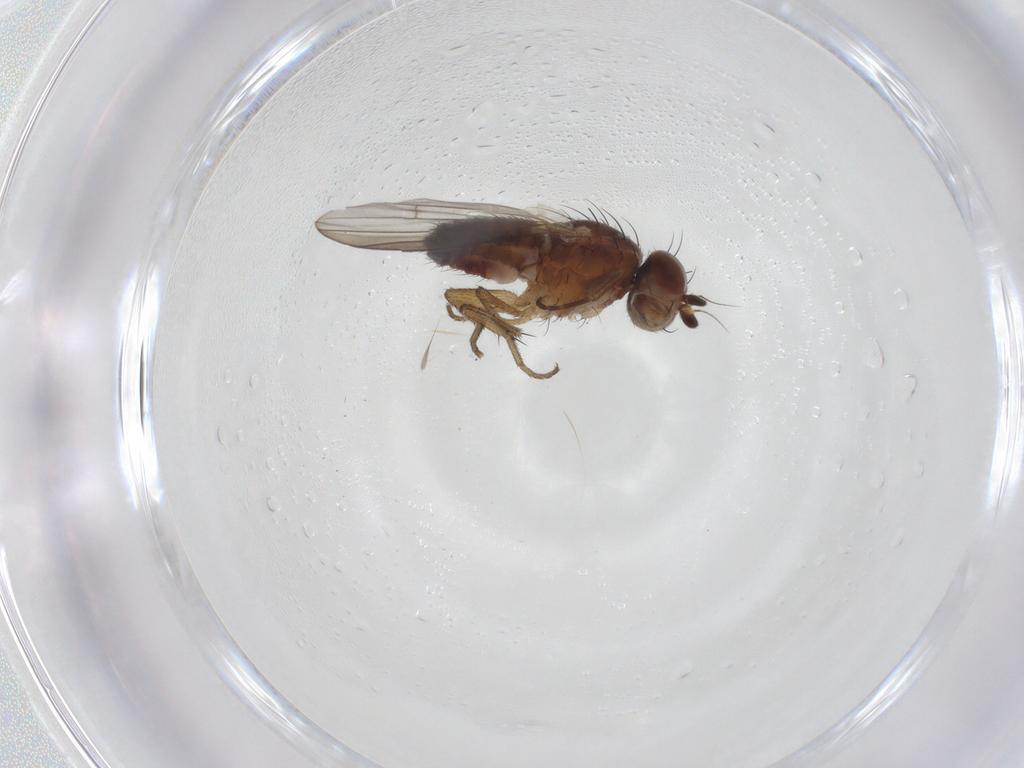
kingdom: Animalia
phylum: Arthropoda
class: Insecta
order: Diptera
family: Heleomyzidae
